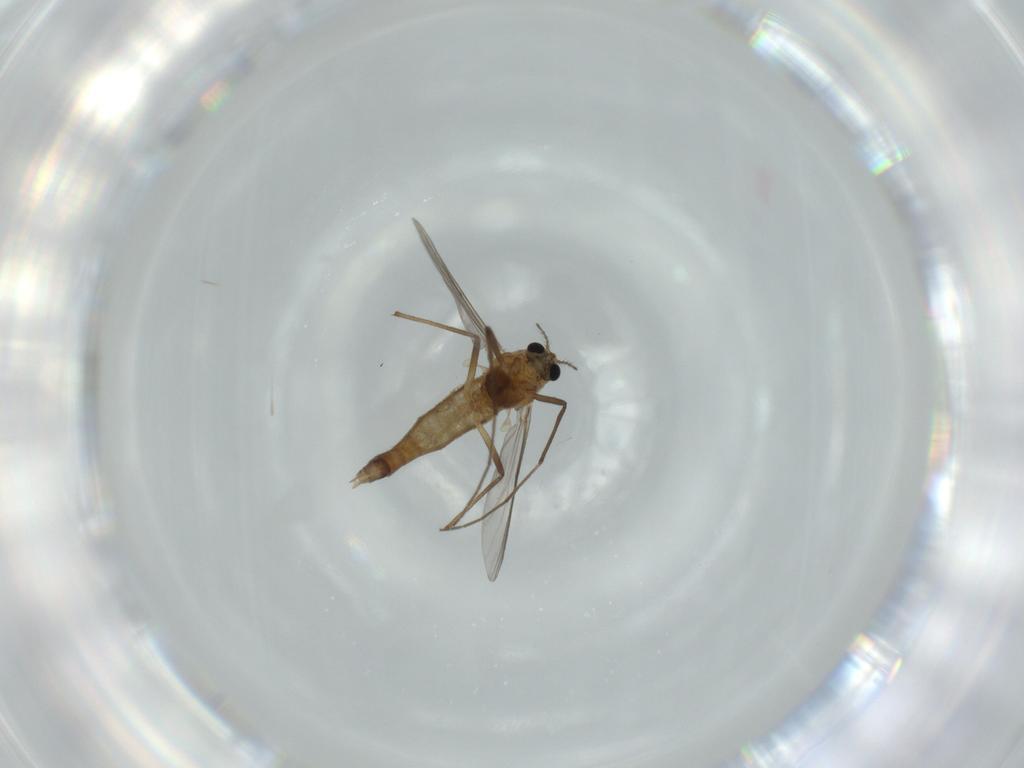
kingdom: Animalia
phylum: Arthropoda
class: Insecta
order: Diptera
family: Chironomidae
